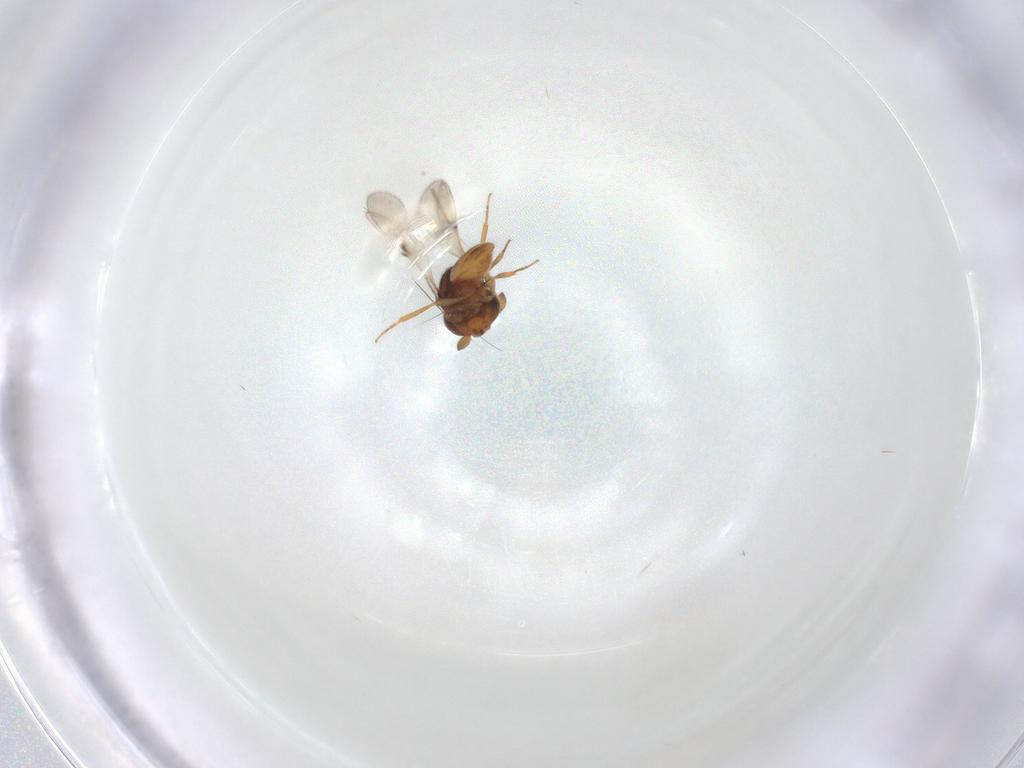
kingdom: Animalia
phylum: Arthropoda
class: Insecta
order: Hymenoptera
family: Scelionidae
